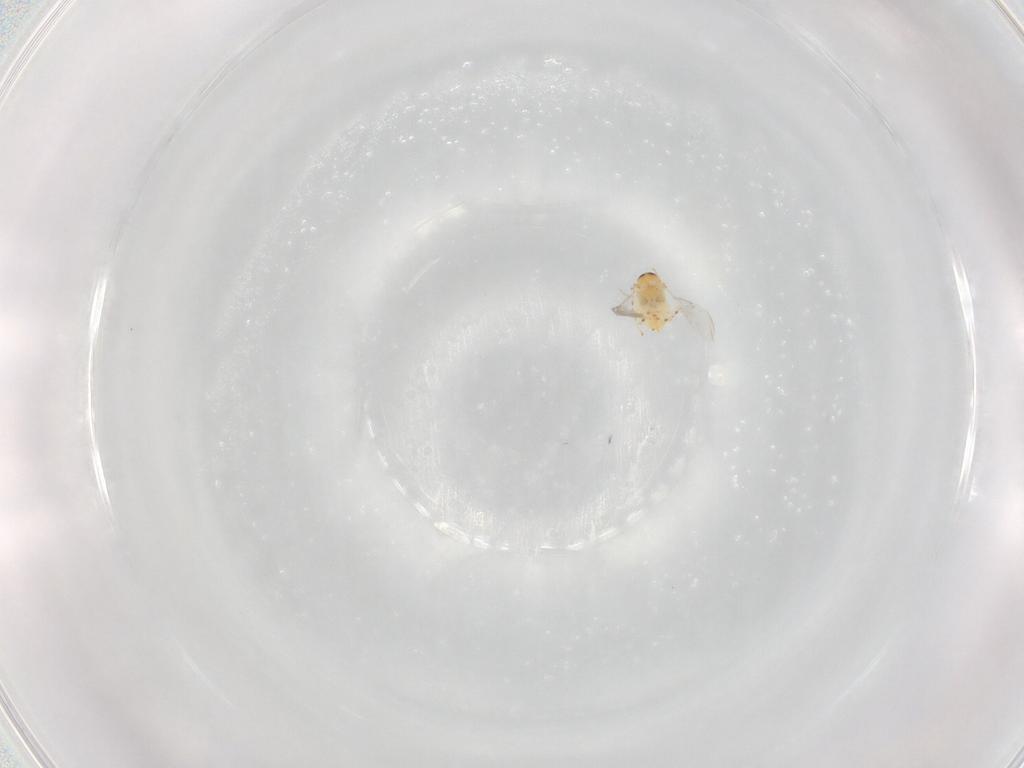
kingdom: Animalia
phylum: Arthropoda
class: Insecta
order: Hymenoptera
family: Encyrtidae
